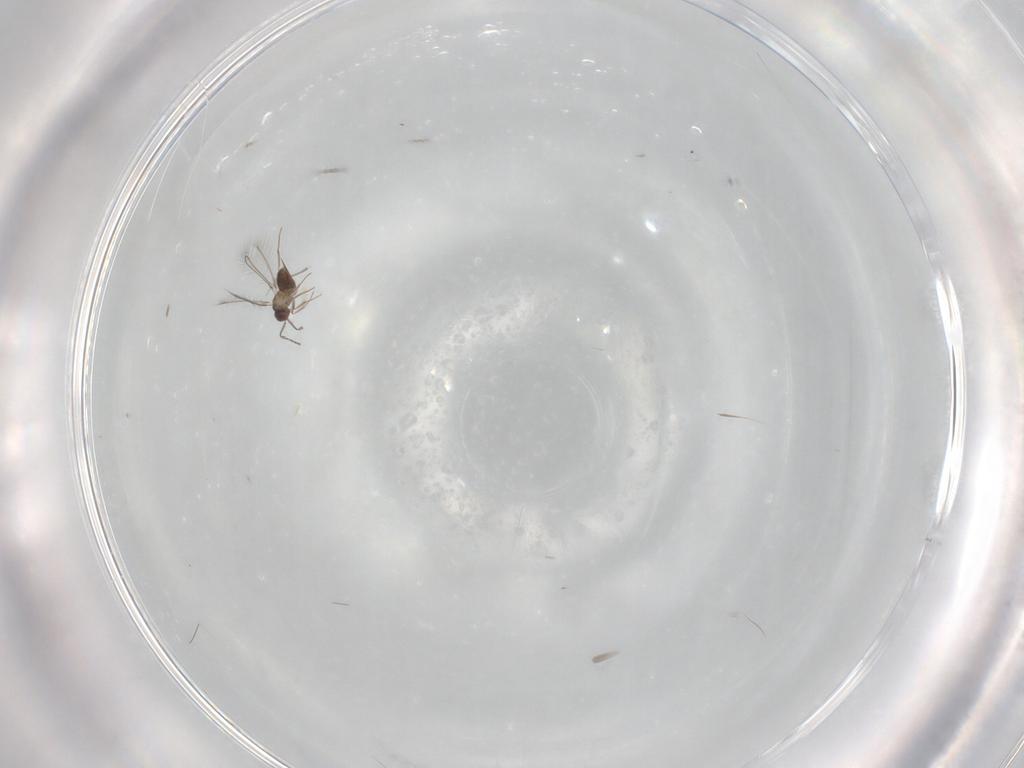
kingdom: Animalia
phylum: Arthropoda
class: Insecta
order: Hymenoptera
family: Mymaridae
